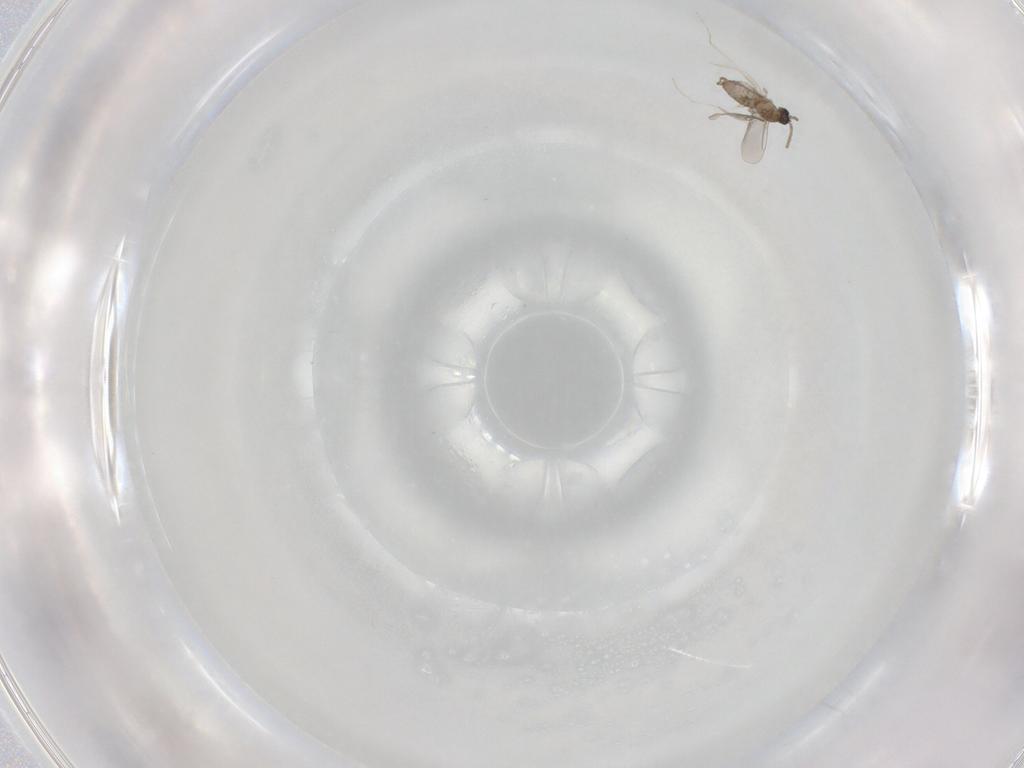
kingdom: Animalia
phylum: Arthropoda
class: Insecta
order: Diptera
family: Cecidomyiidae
